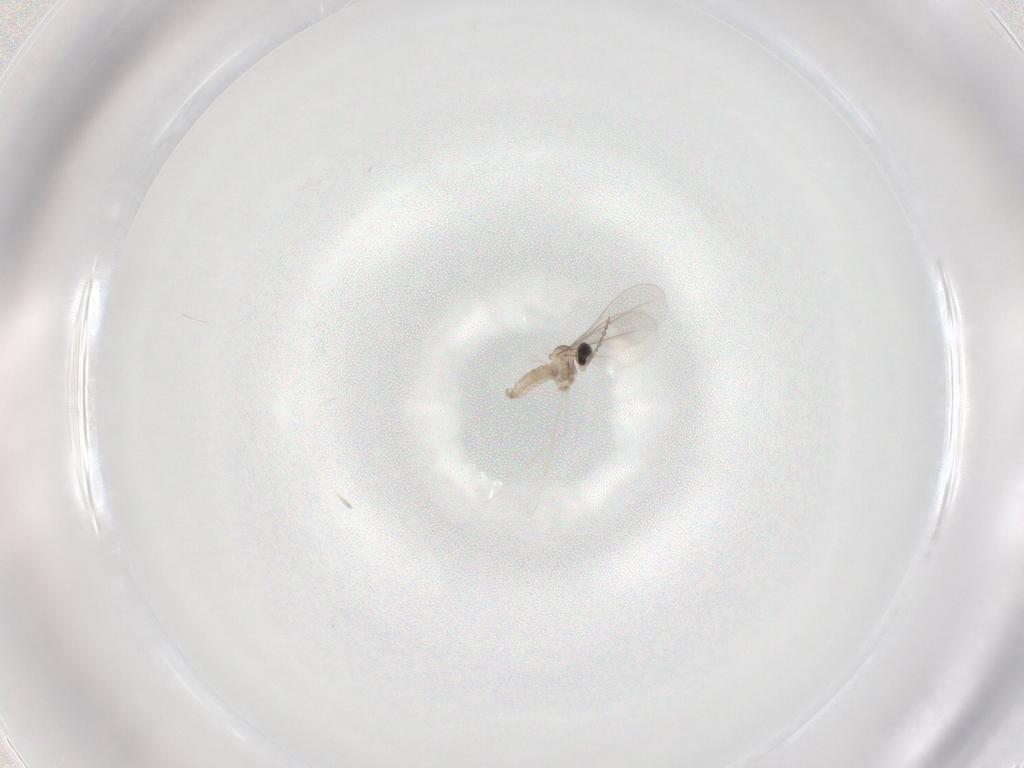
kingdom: Animalia
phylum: Arthropoda
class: Insecta
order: Diptera
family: Cecidomyiidae
